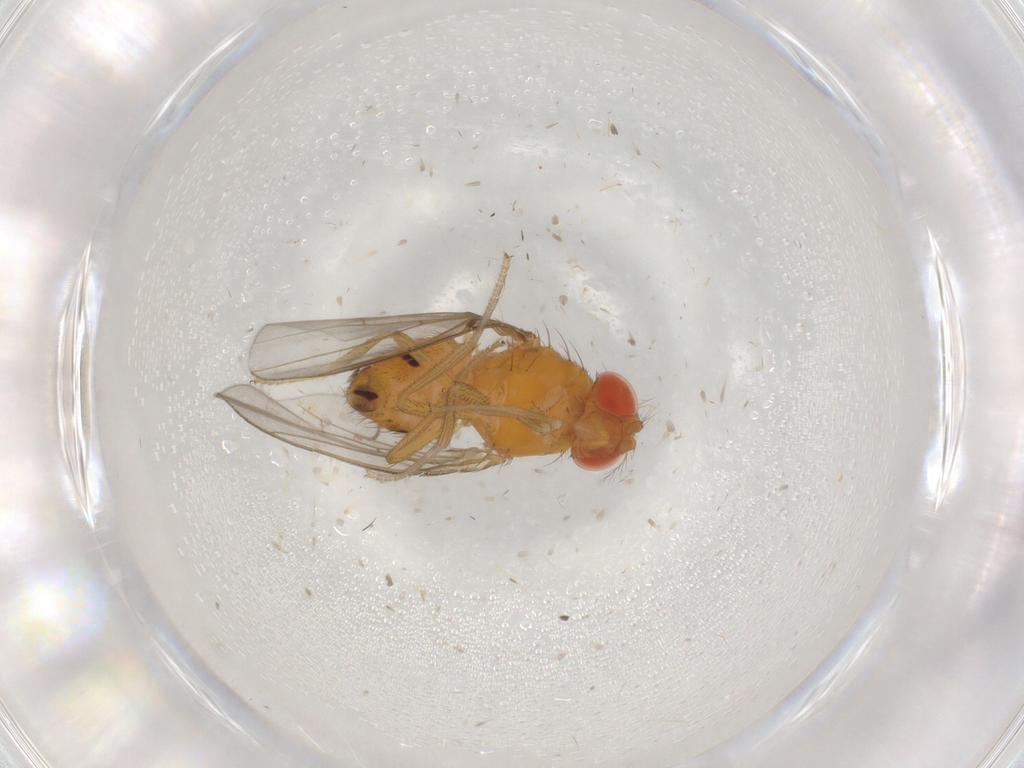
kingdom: Animalia
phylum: Arthropoda
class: Insecta
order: Diptera
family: Drosophilidae
